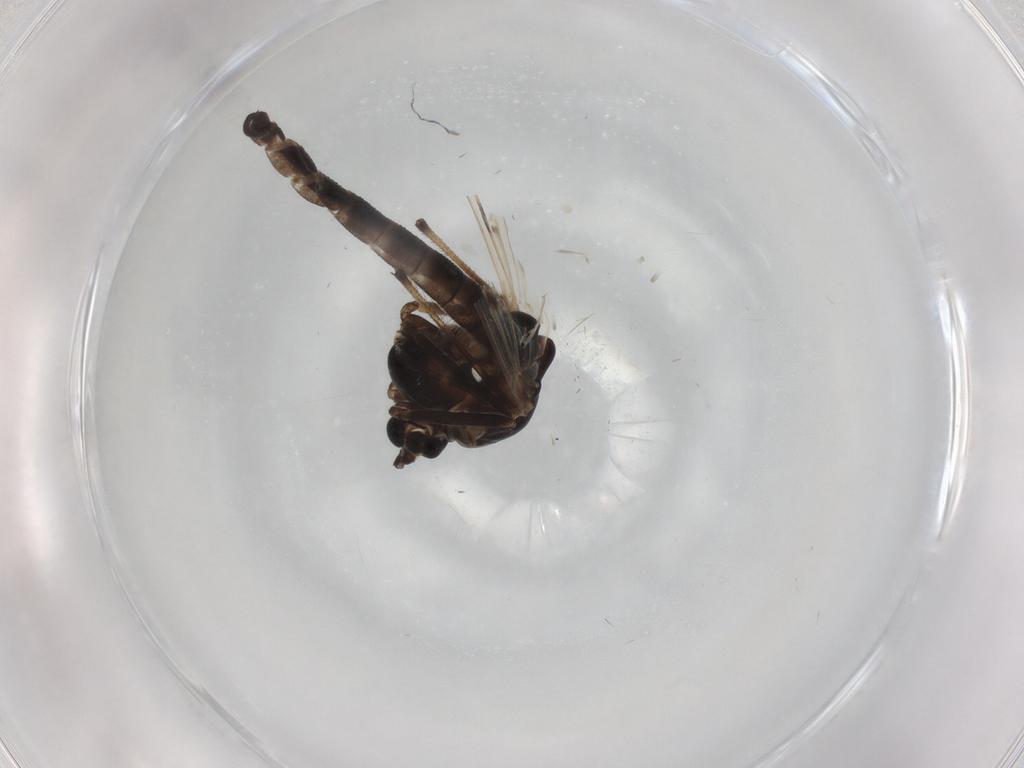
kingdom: Animalia
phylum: Arthropoda
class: Insecta
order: Diptera
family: Chironomidae
